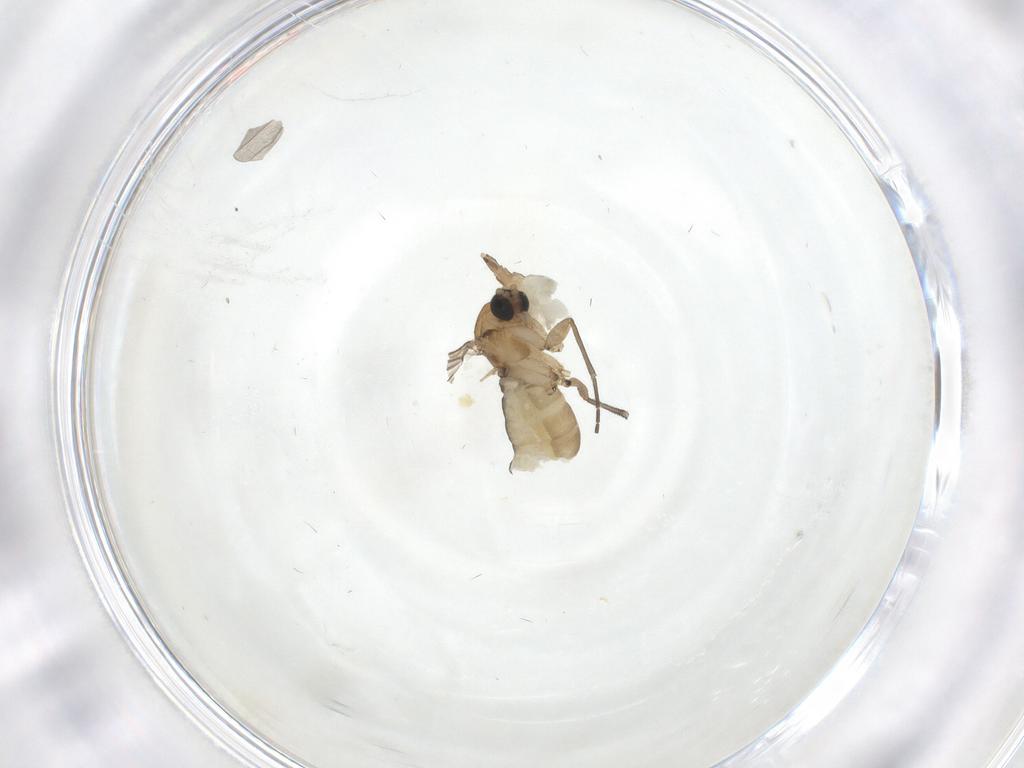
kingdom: Animalia
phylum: Arthropoda
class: Insecta
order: Diptera
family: Sciaridae
